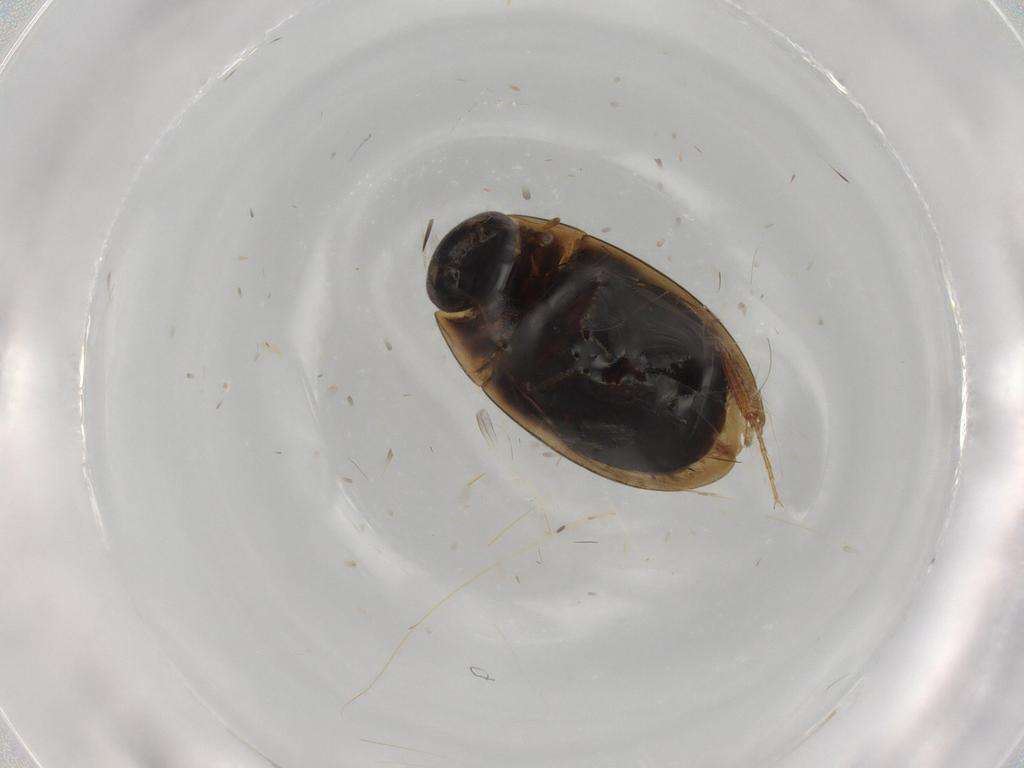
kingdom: Animalia
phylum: Arthropoda
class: Insecta
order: Coleoptera
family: Hydrophilidae
